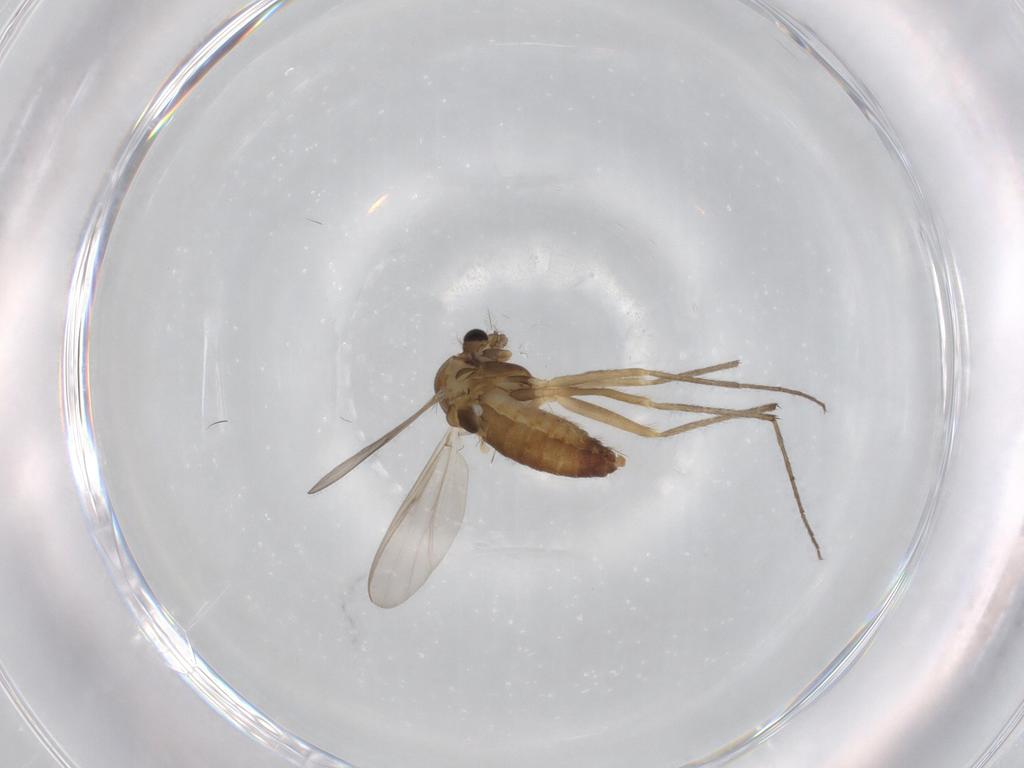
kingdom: Animalia
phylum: Arthropoda
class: Insecta
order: Diptera
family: Chironomidae
